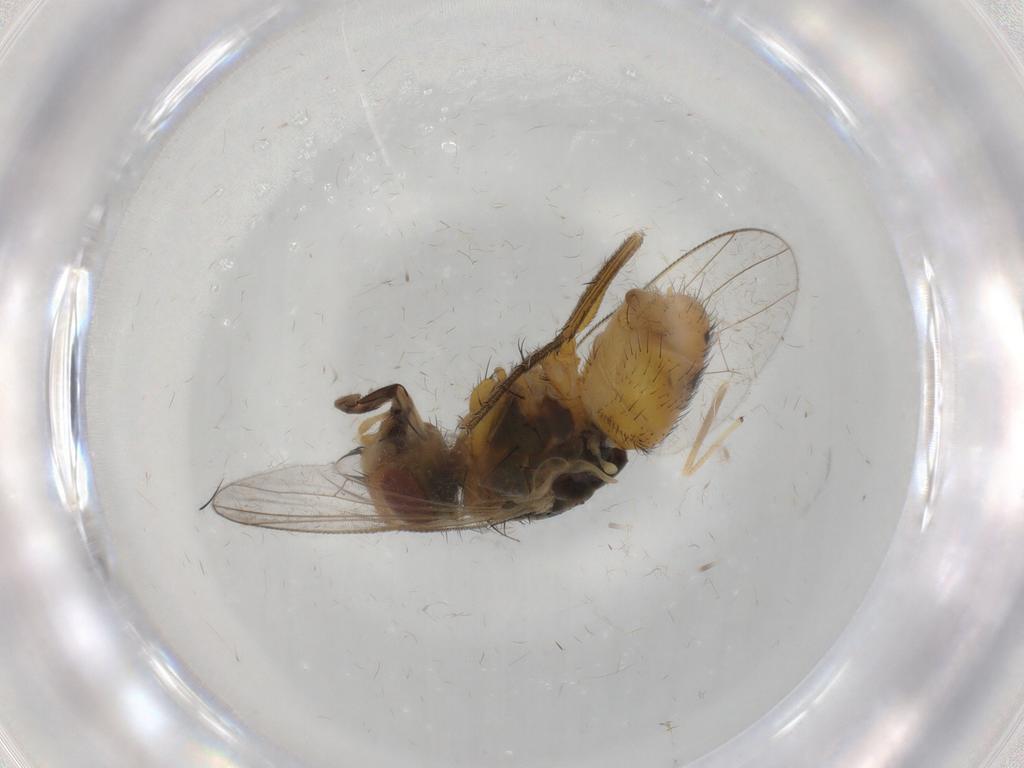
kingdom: Animalia
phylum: Arthropoda
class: Insecta
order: Diptera
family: Muscidae
